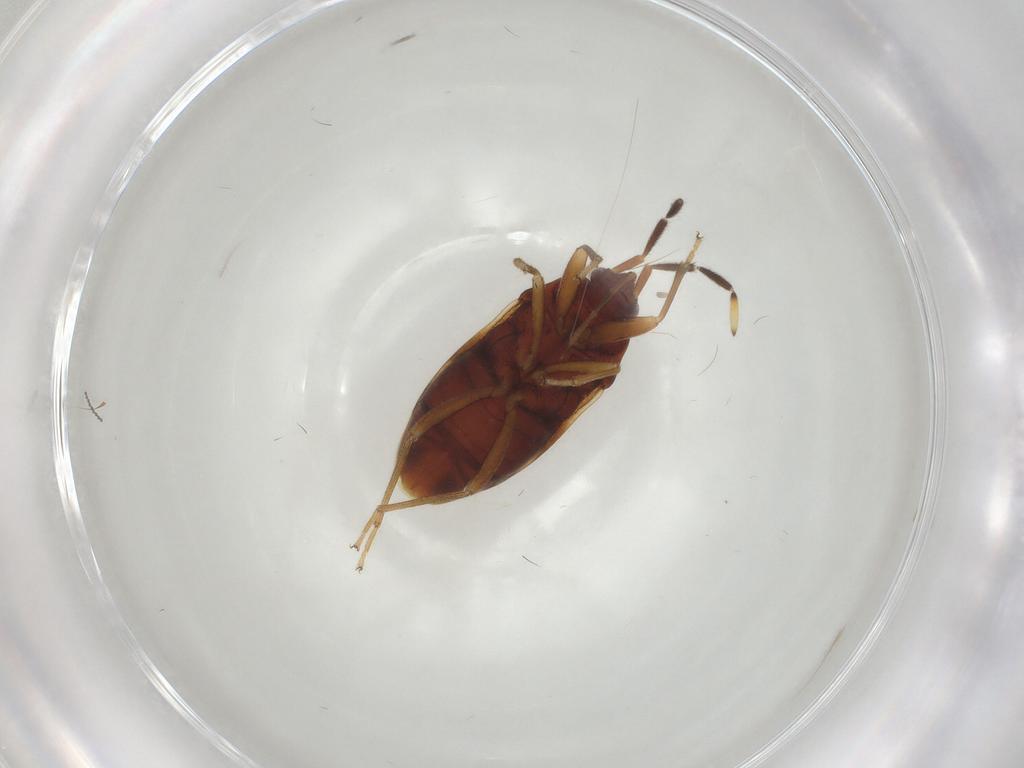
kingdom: Animalia
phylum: Arthropoda
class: Insecta
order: Hemiptera
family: Rhyparochromidae
